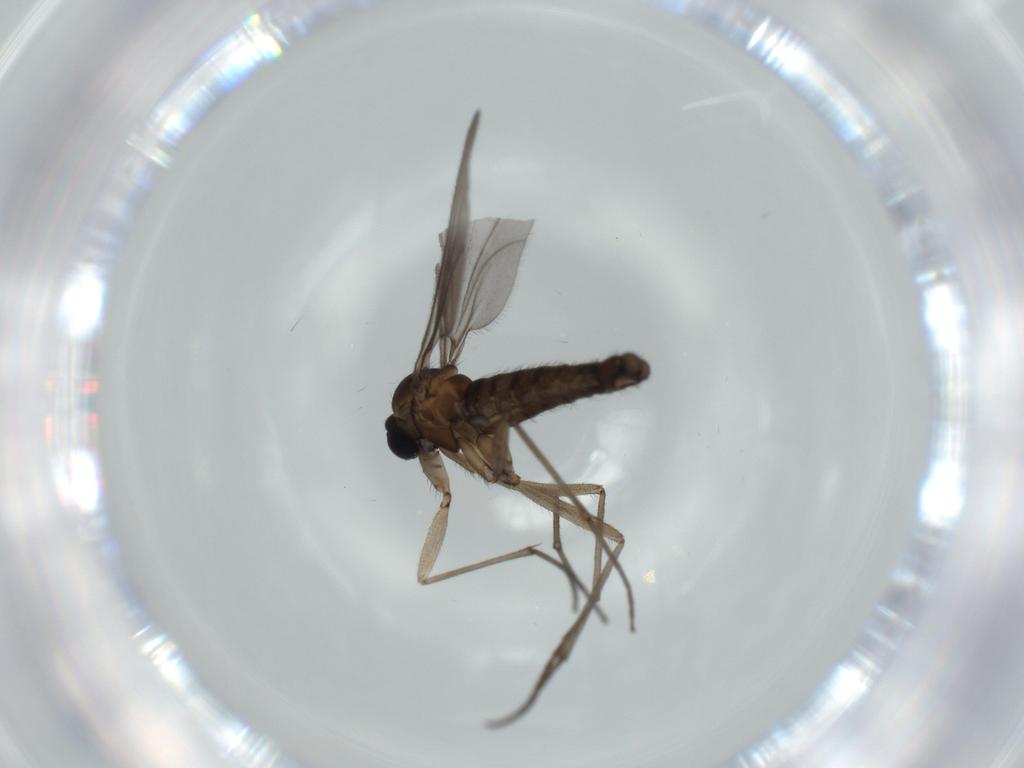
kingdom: Animalia
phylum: Arthropoda
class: Insecta
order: Diptera
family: Sciaridae
